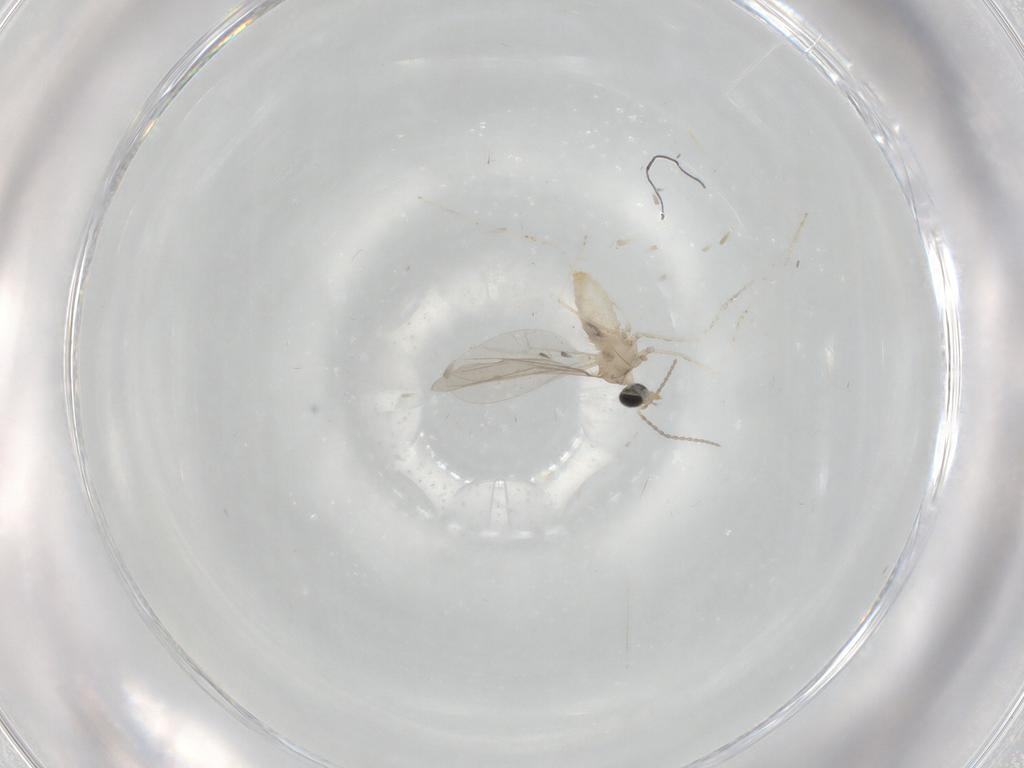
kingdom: Animalia
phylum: Arthropoda
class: Insecta
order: Diptera
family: Cecidomyiidae
